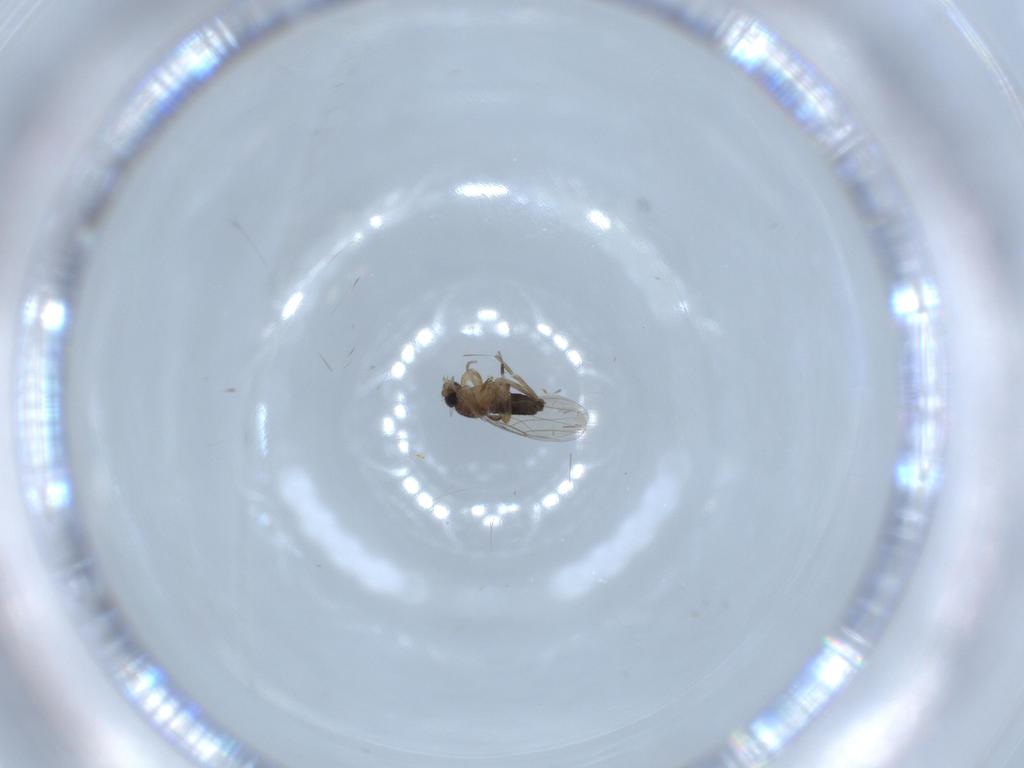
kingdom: Animalia
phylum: Arthropoda
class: Insecta
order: Diptera
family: Phoridae
